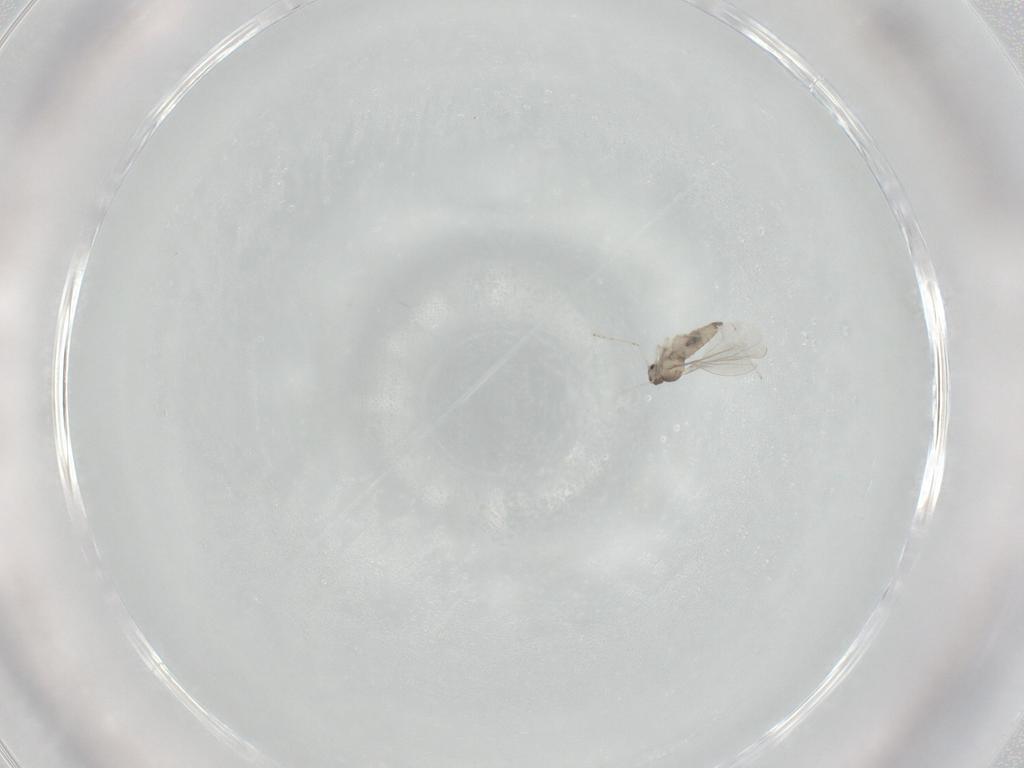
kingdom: Animalia
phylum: Arthropoda
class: Insecta
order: Diptera
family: Cecidomyiidae
